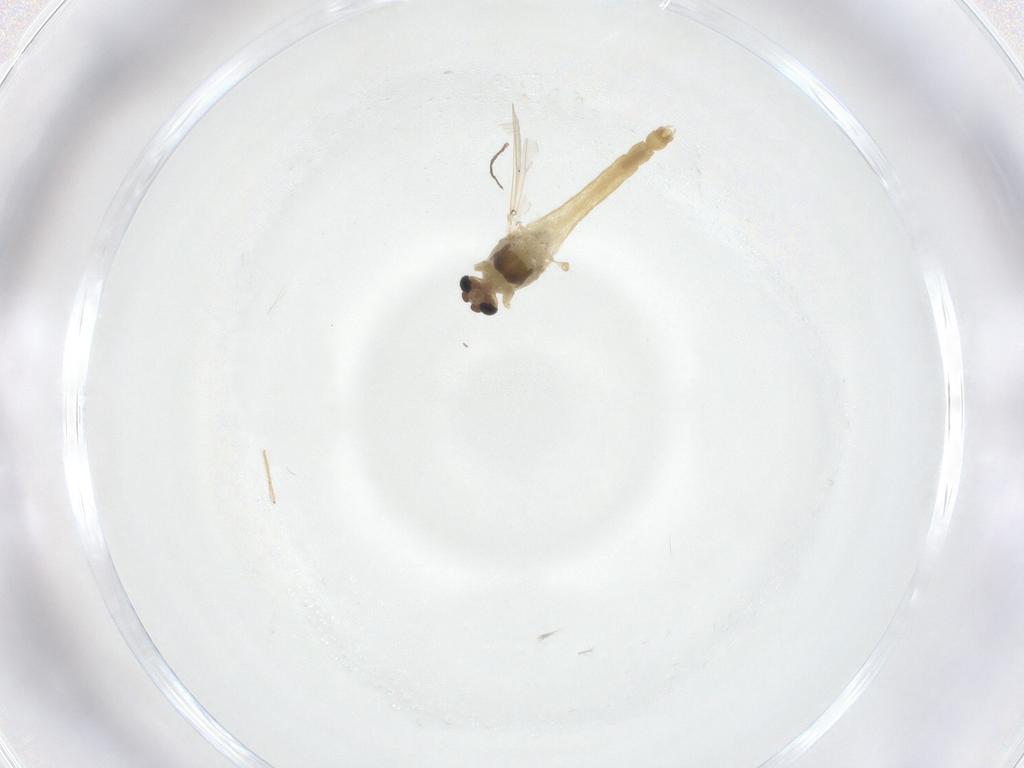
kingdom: Animalia
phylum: Arthropoda
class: Insecta
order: Diptera
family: Chironomidae
